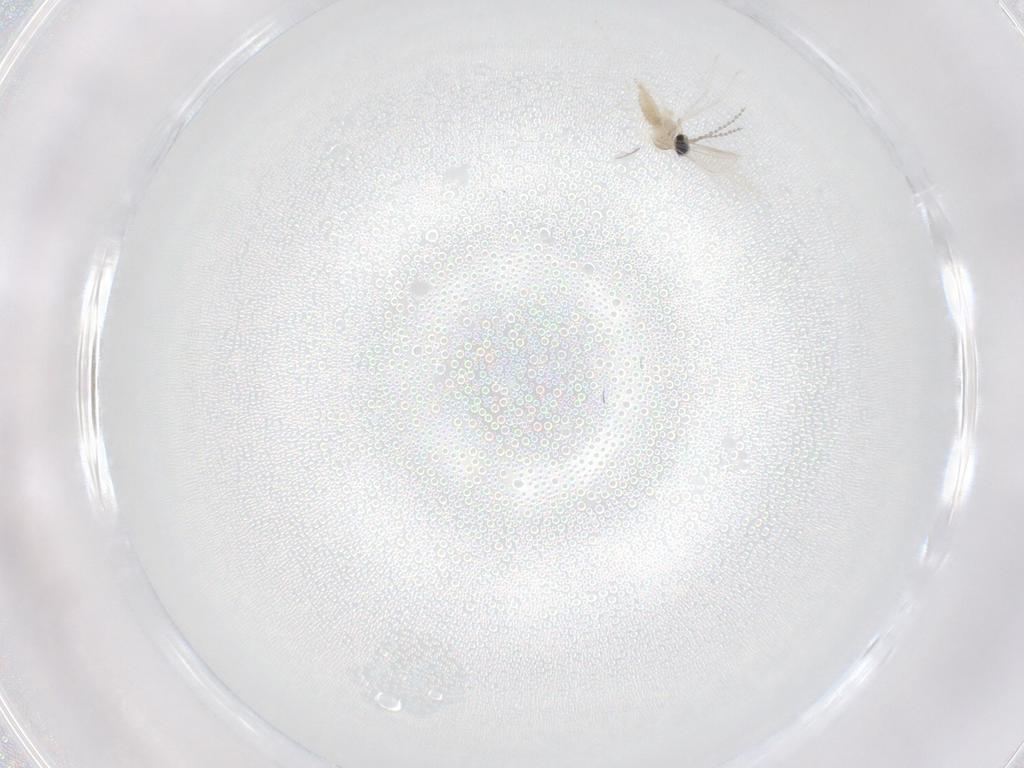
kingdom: Animalia
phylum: Arthropoda
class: Insecta
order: Diptera
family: Cecidomyiidae
